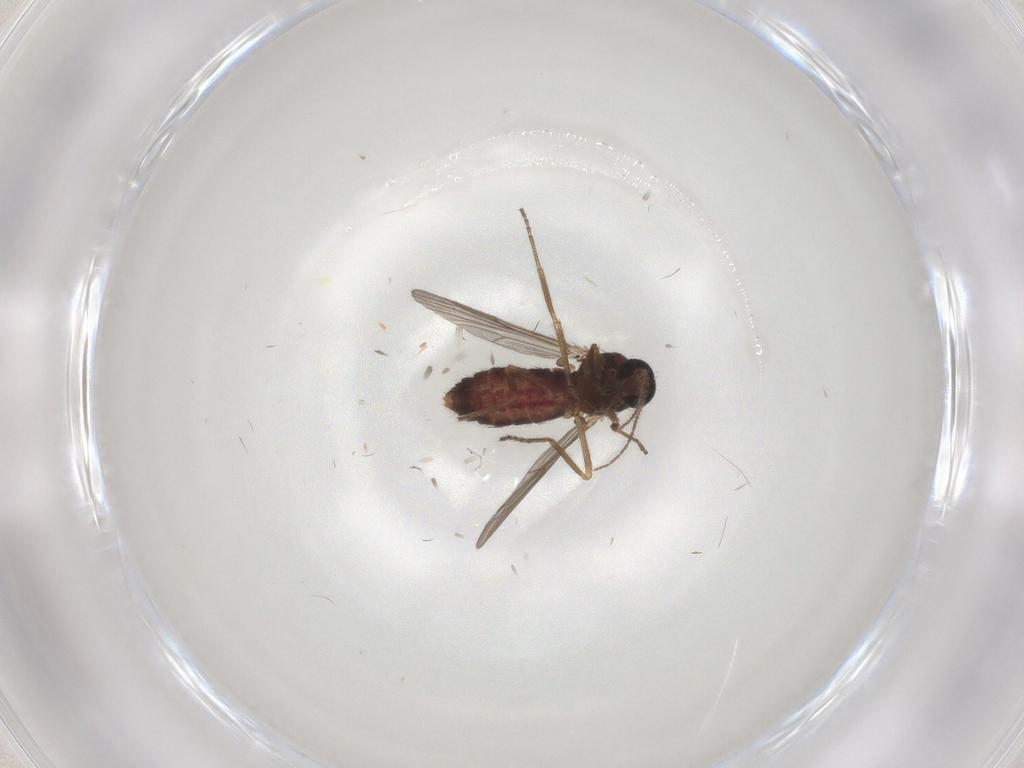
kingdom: Animalia
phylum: Arthropoda
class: Insecta
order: Diptera
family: Ceratopogonidae
